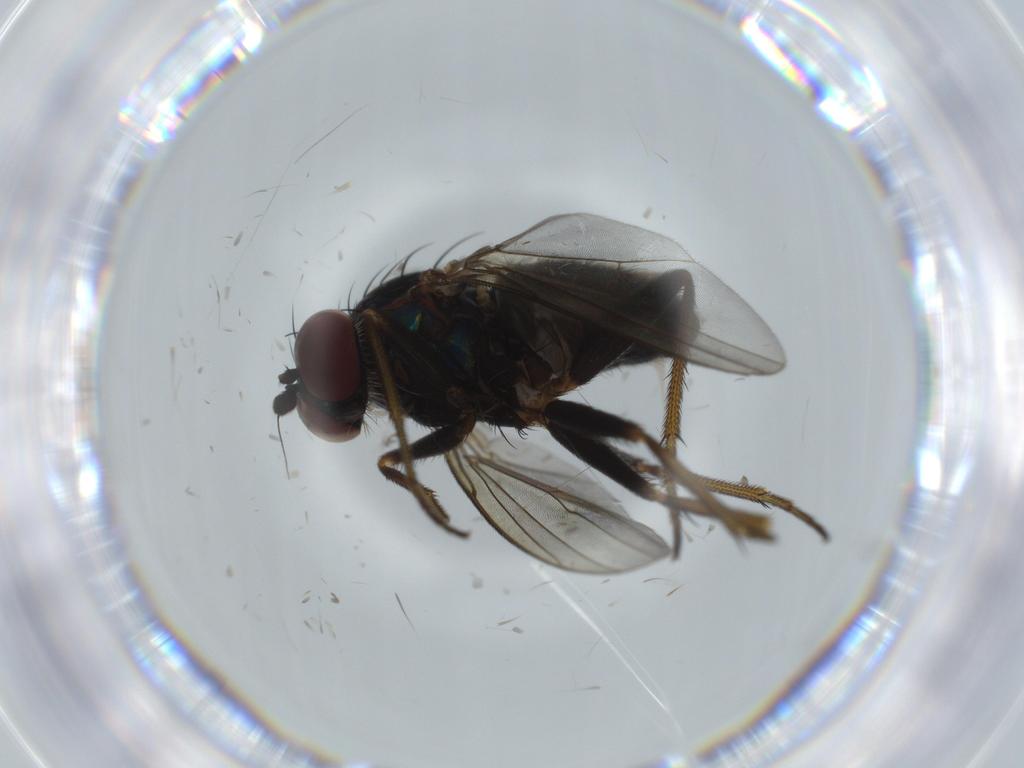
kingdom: Animalia
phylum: Arthropoda
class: Insecta
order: Diptera
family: Dolichopodidae
